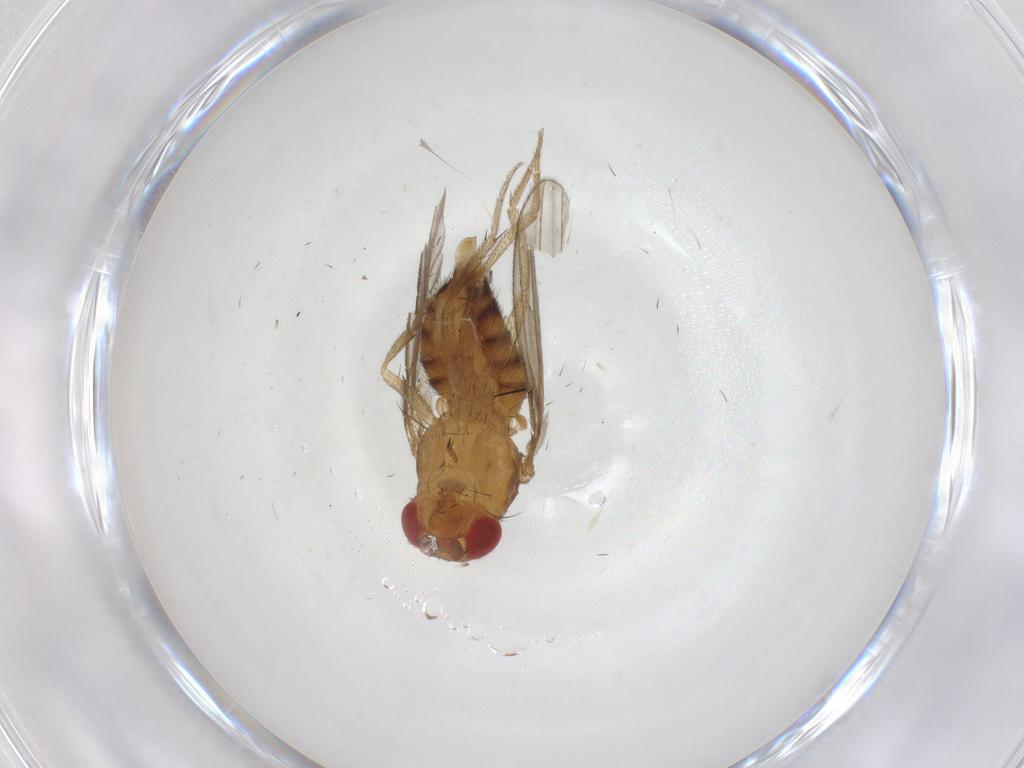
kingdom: Animalia
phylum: Arthropoda
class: Insecta
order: Diptera
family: Drosophilidae
